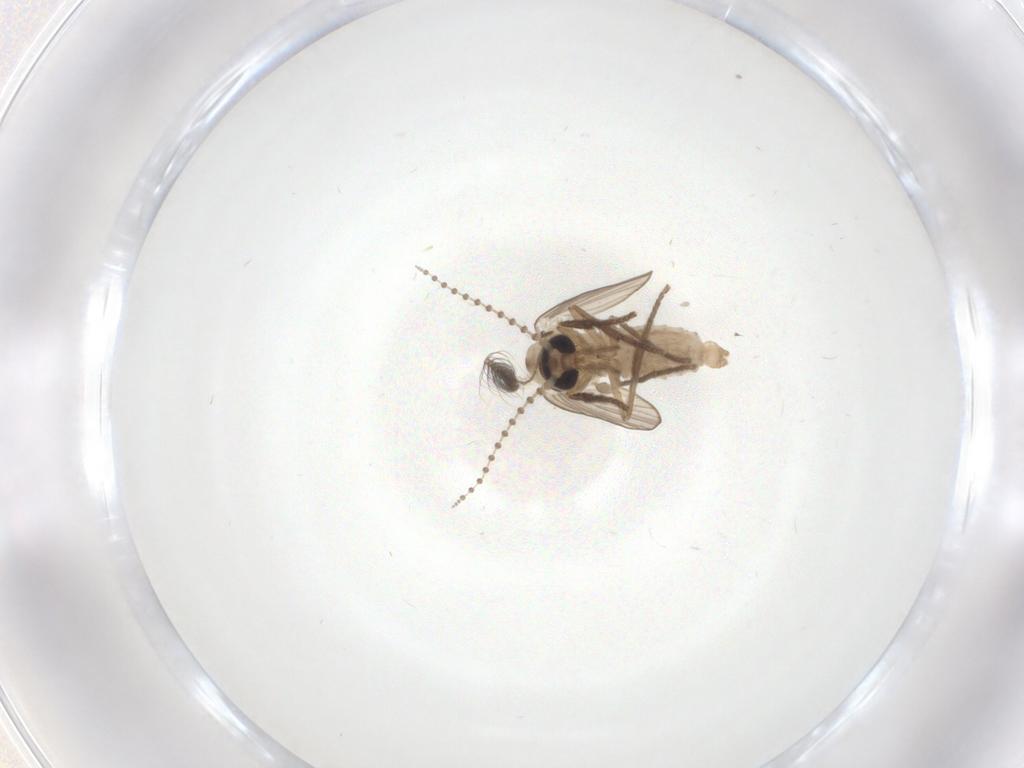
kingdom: Animalia
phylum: Arthropoda
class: Insecta
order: Diptera
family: Psychodidae
